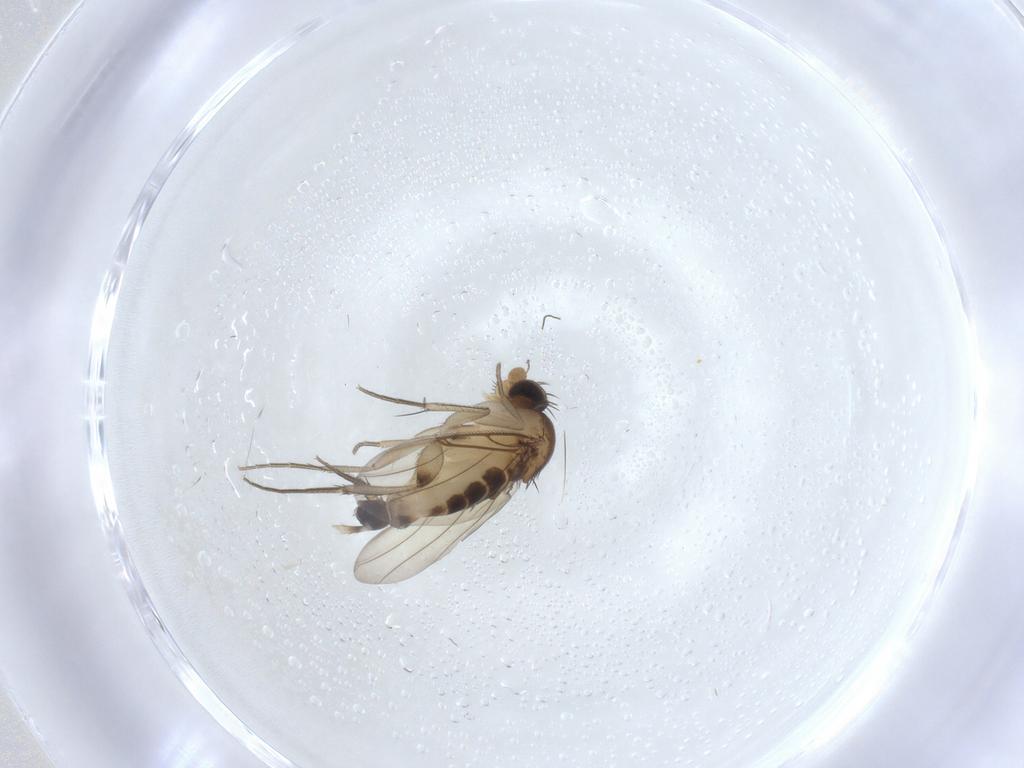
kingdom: Animalia
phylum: Arthropoda
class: Insecta
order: Diptera
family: Phoridae
